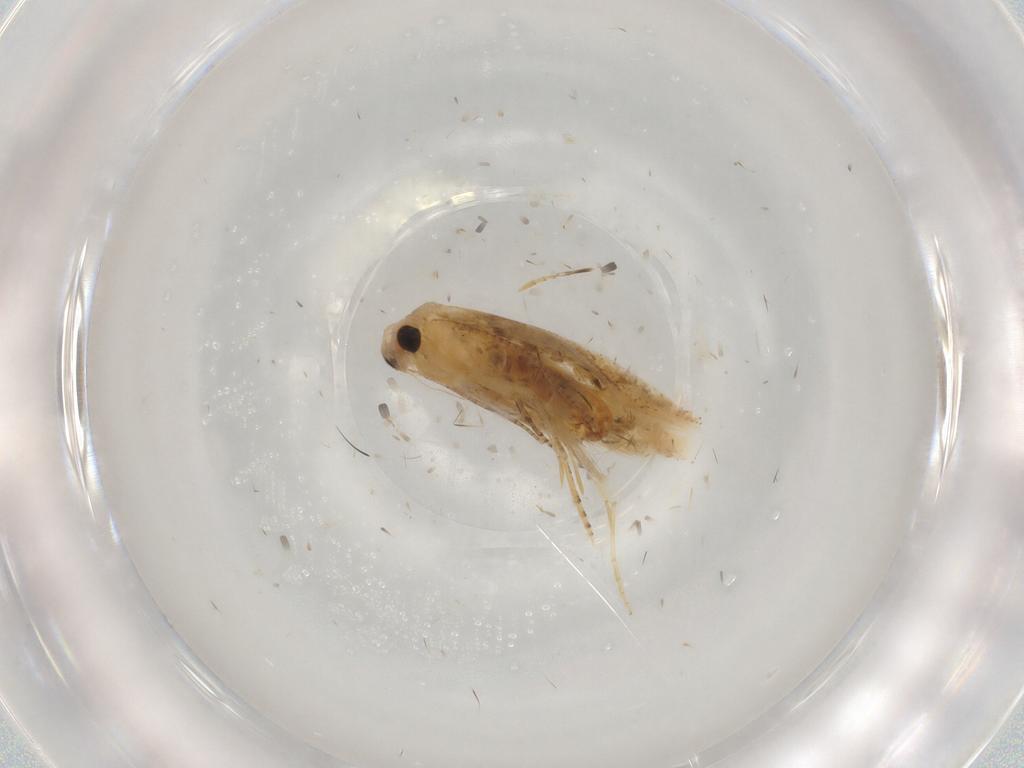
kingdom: Animalia
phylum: Arthropoda
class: Insecta
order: Lepidoptera
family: Noctuidae
